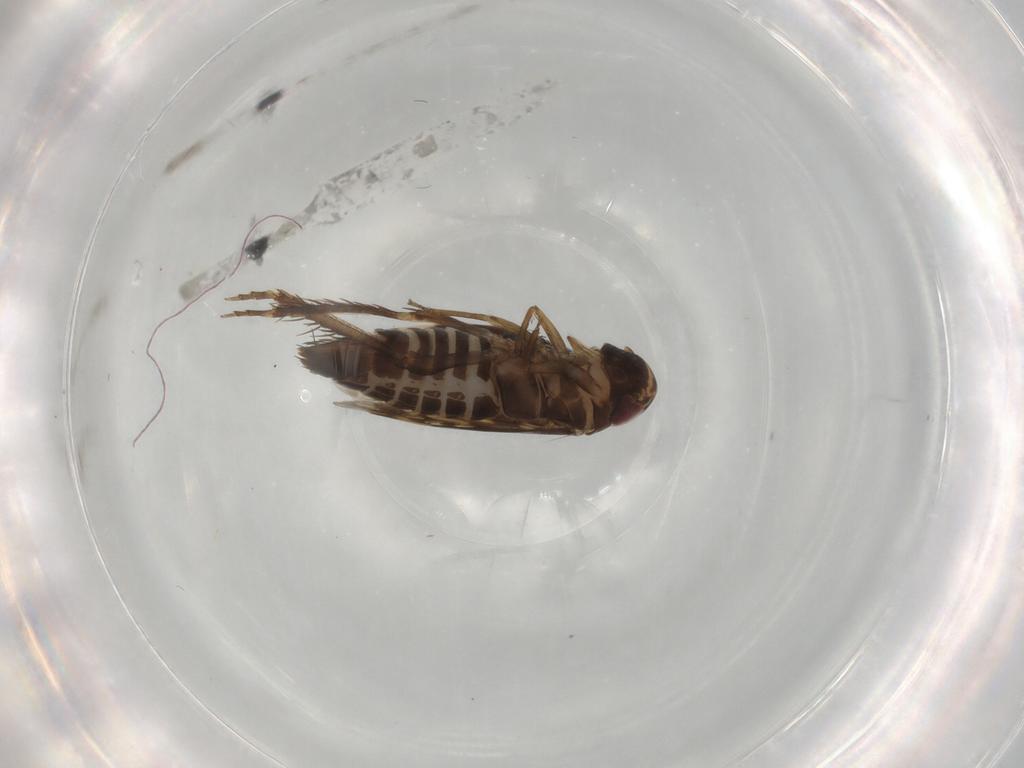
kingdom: Animalia
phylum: Arthropoda
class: Insecta
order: Hemiptera
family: Cicadellidae
